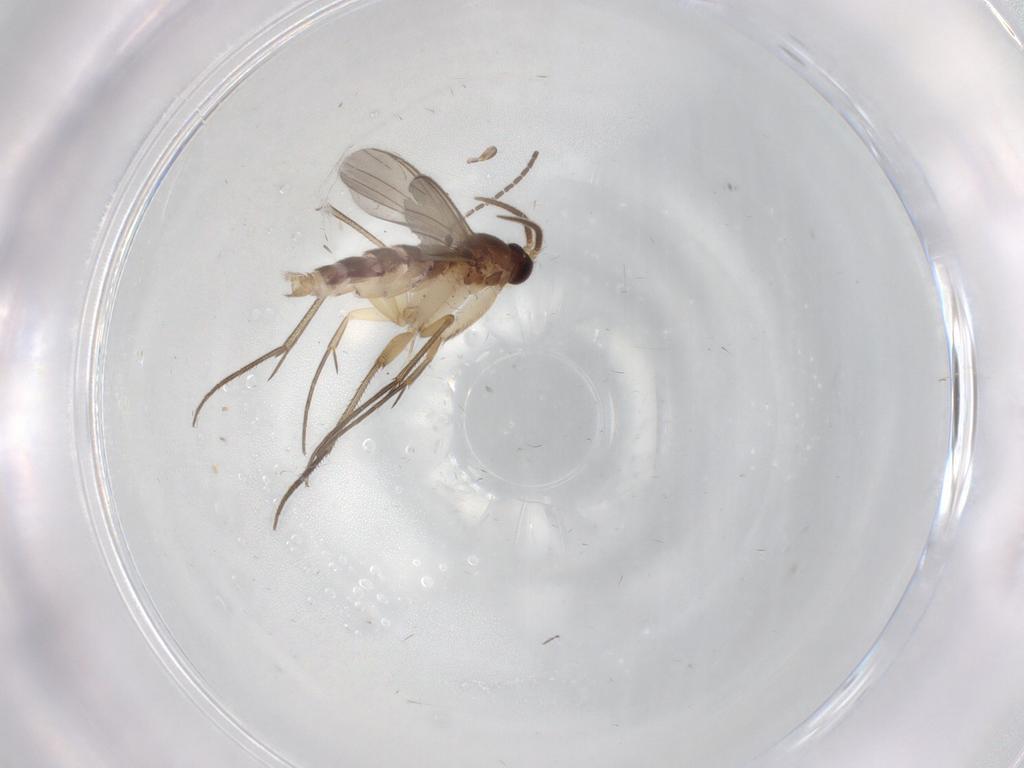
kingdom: Animalia
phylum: Arthropoda
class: Insecta
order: Diptera
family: Mycetophilidae
